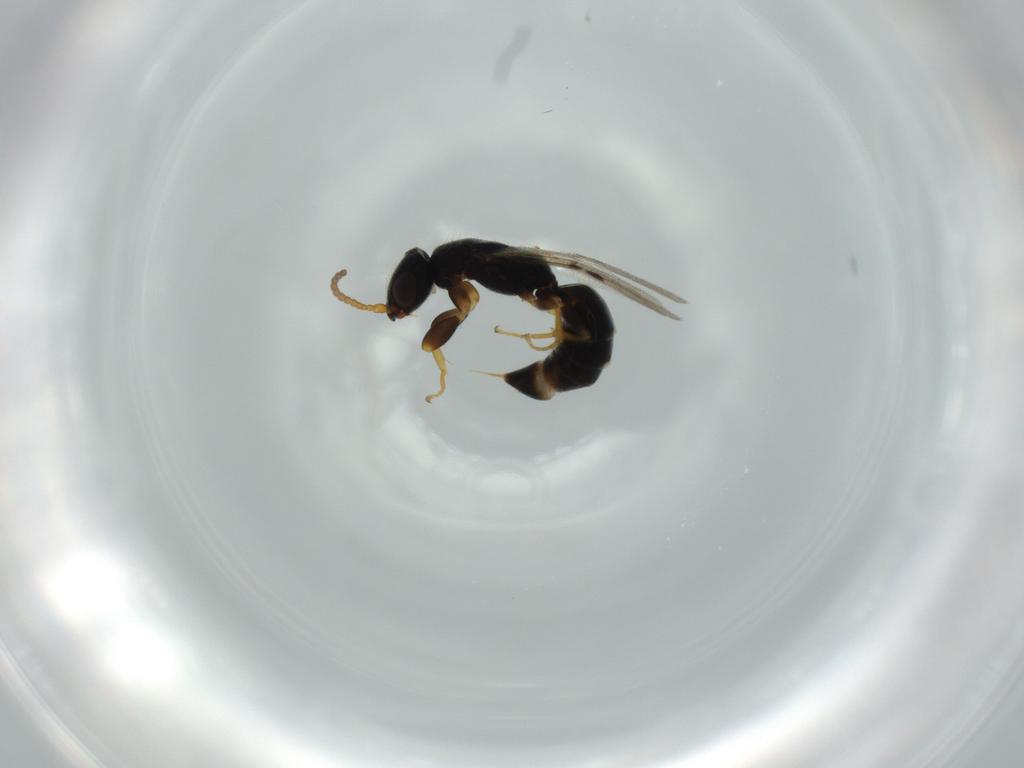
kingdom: Animalia
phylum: Arthropoda
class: Insecta
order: Hymenoptera
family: Bethylidae
